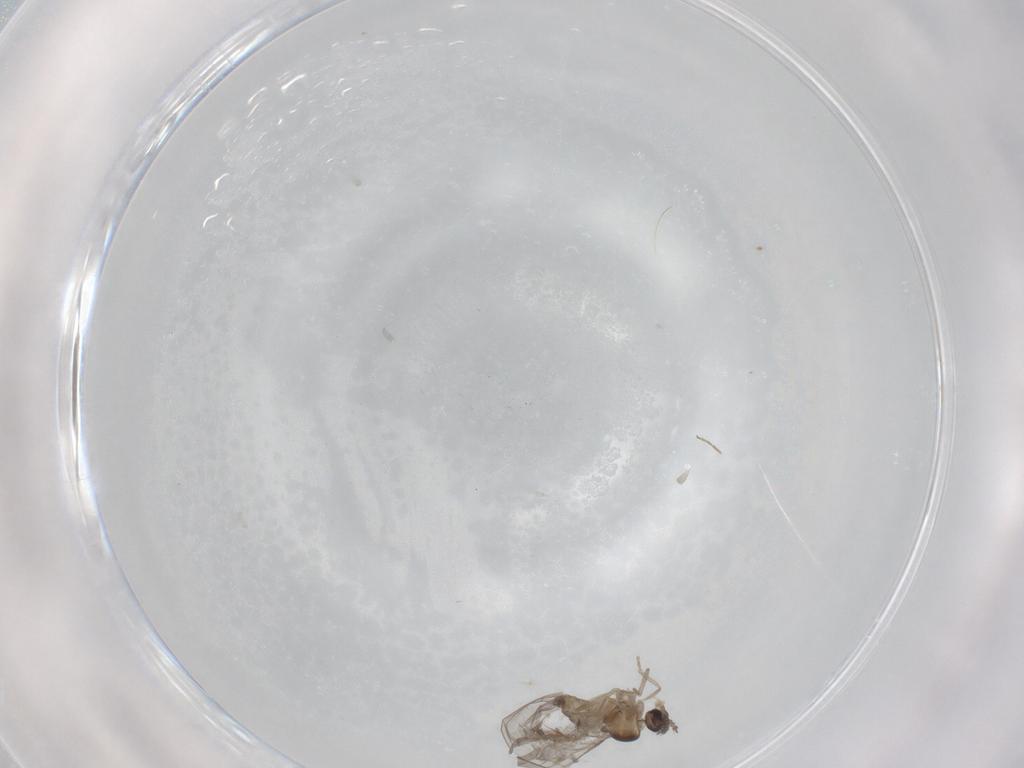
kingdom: Animalia
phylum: Arthropoda
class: Insecta
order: Diptera
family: Cecidomyiidae
